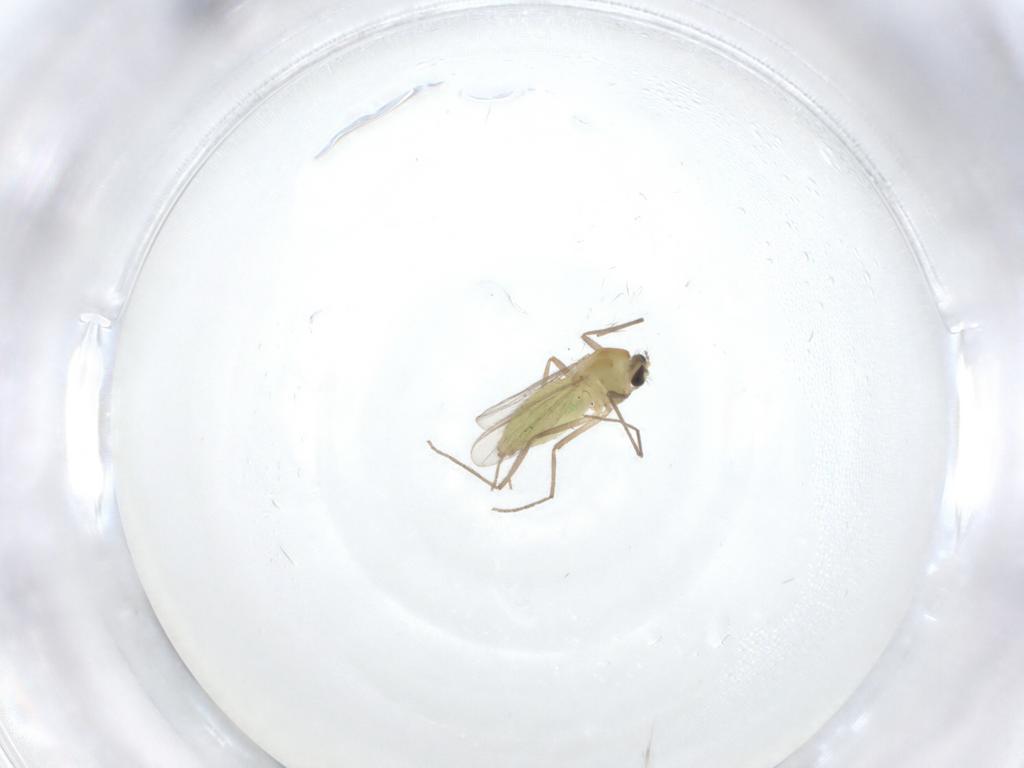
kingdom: Animalia
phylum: Arthropoda
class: Insecta
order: Diptera
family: Chironomidae
